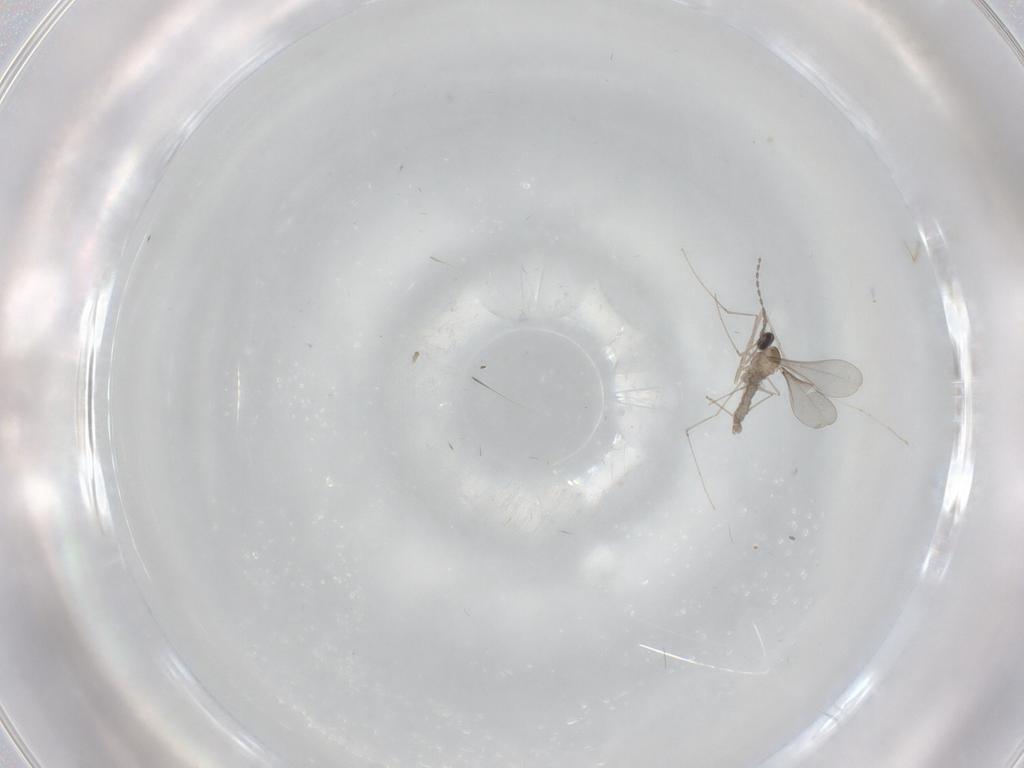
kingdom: Animalia
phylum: Arthropoda
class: Insecta
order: Diptera
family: Cecidomyiidae
